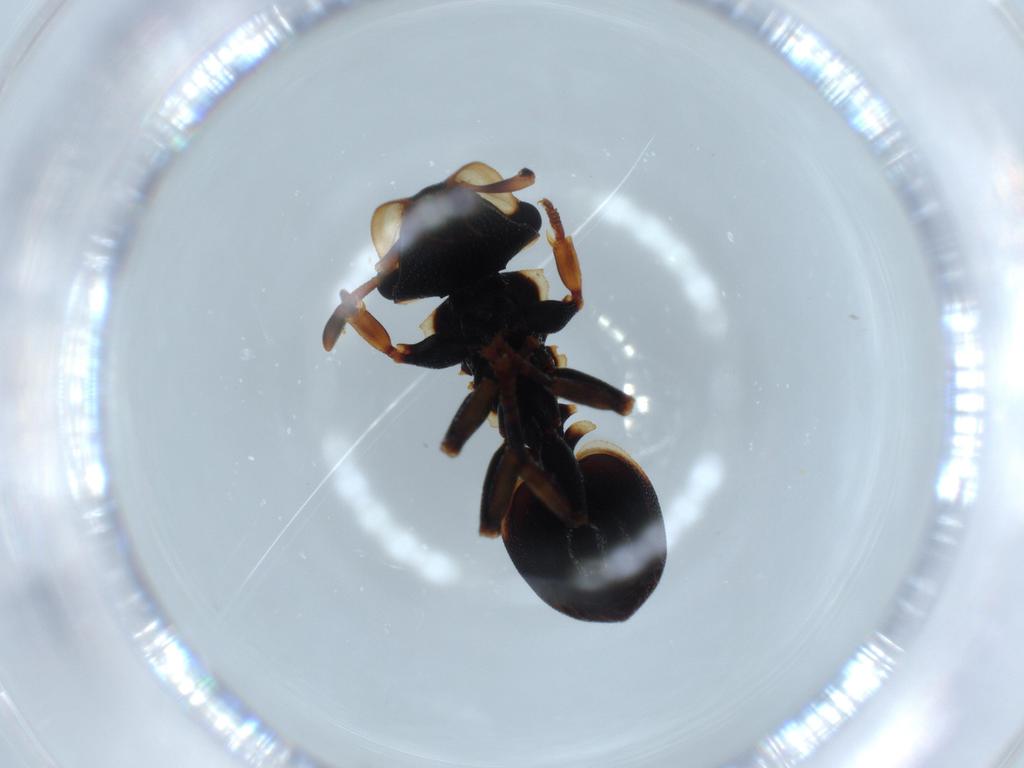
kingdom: Animalia
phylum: Arthropoda
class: Insecta
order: Hymenoptera
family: Formicidae
